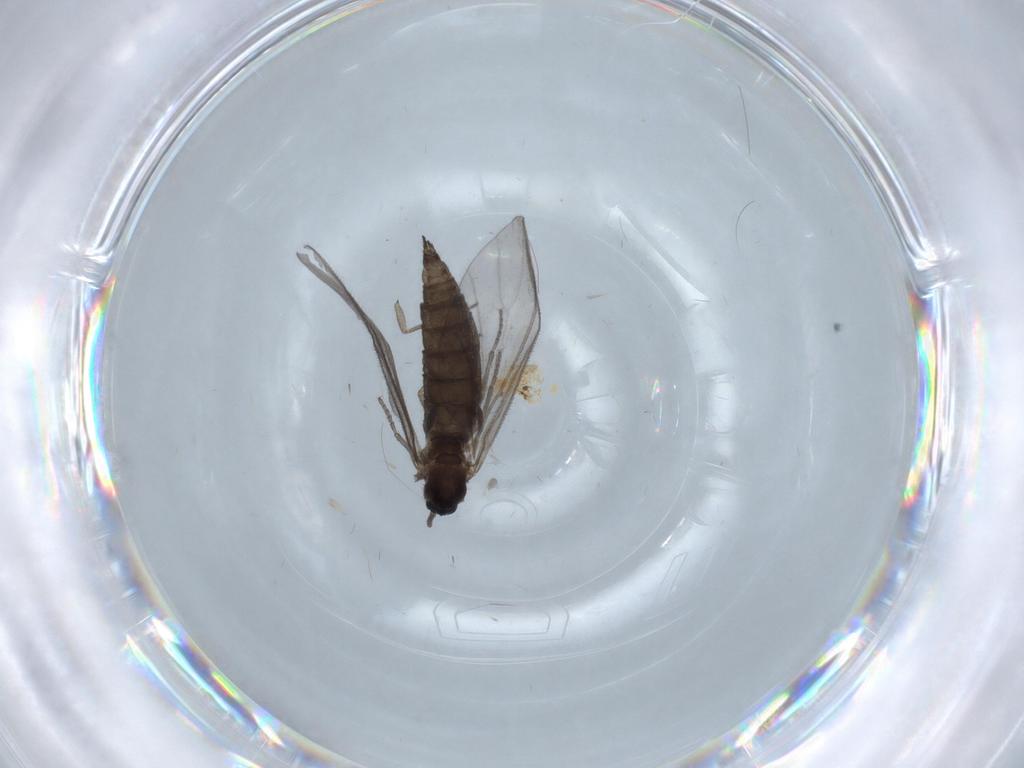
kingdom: Animalia
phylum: Arthropoda
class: Insecta
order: Diptera
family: Sciaridae
